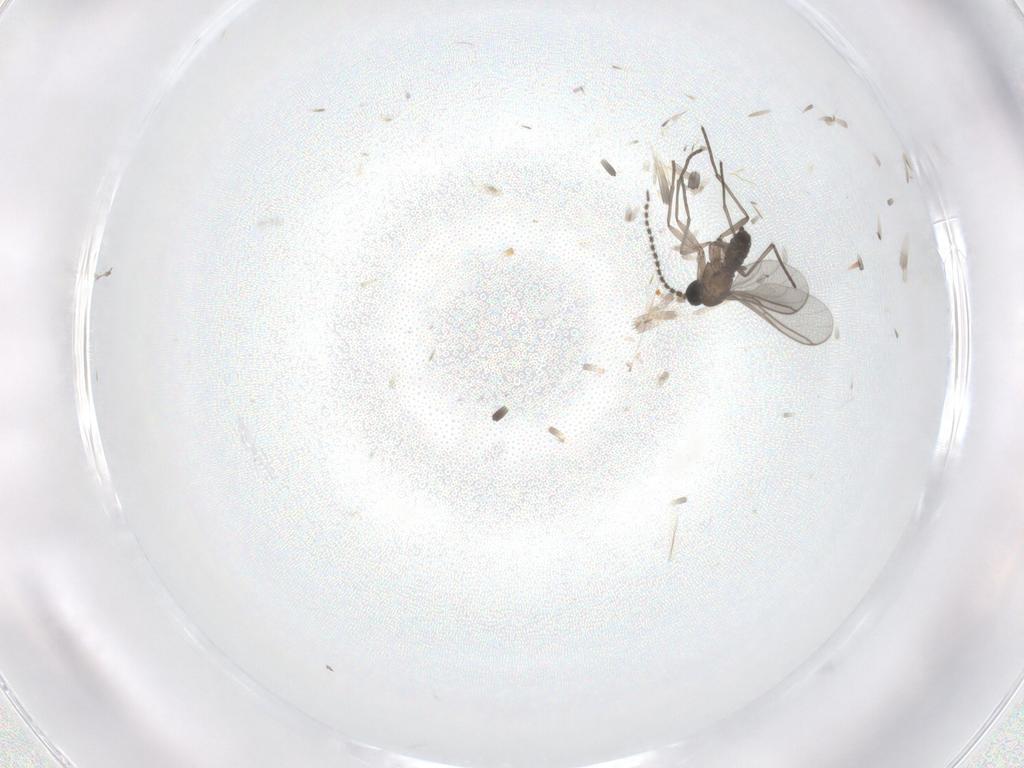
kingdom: Animalia
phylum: Arthropoda
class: Insecta
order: Diptera
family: Sciaridae
